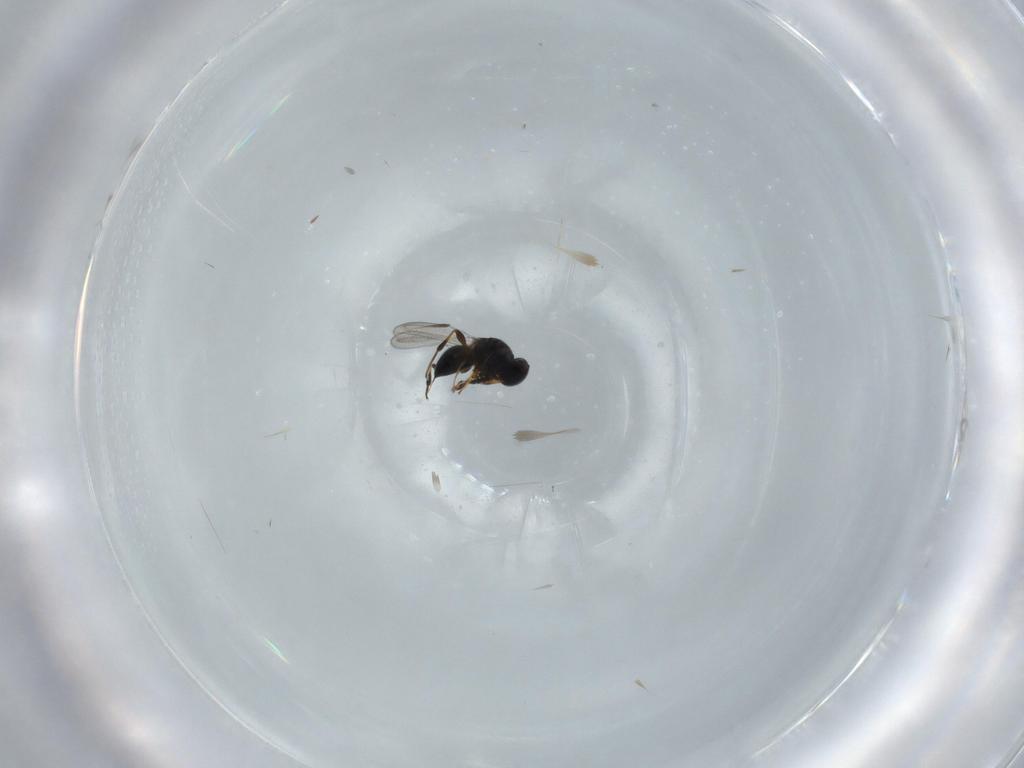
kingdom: Animalia
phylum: Arthropoda
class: Insecta
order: Hymenoptera
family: Platygastridae
